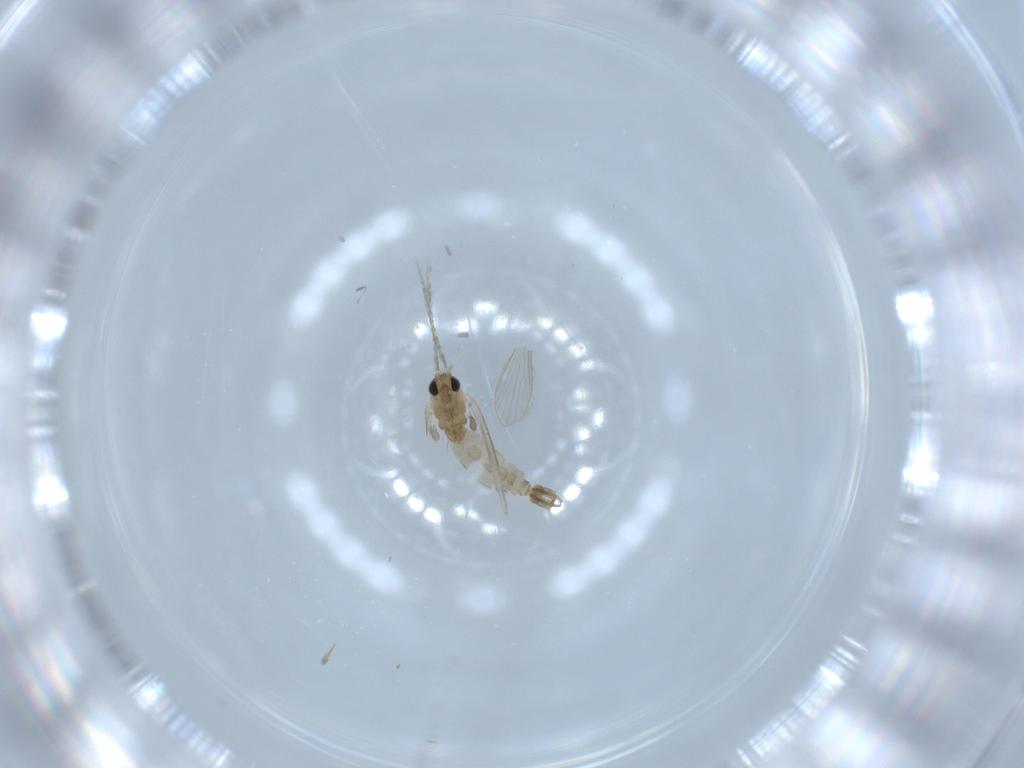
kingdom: Animalia
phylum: Arthropoda
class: Insecta
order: Diptera
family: Psychodidae
